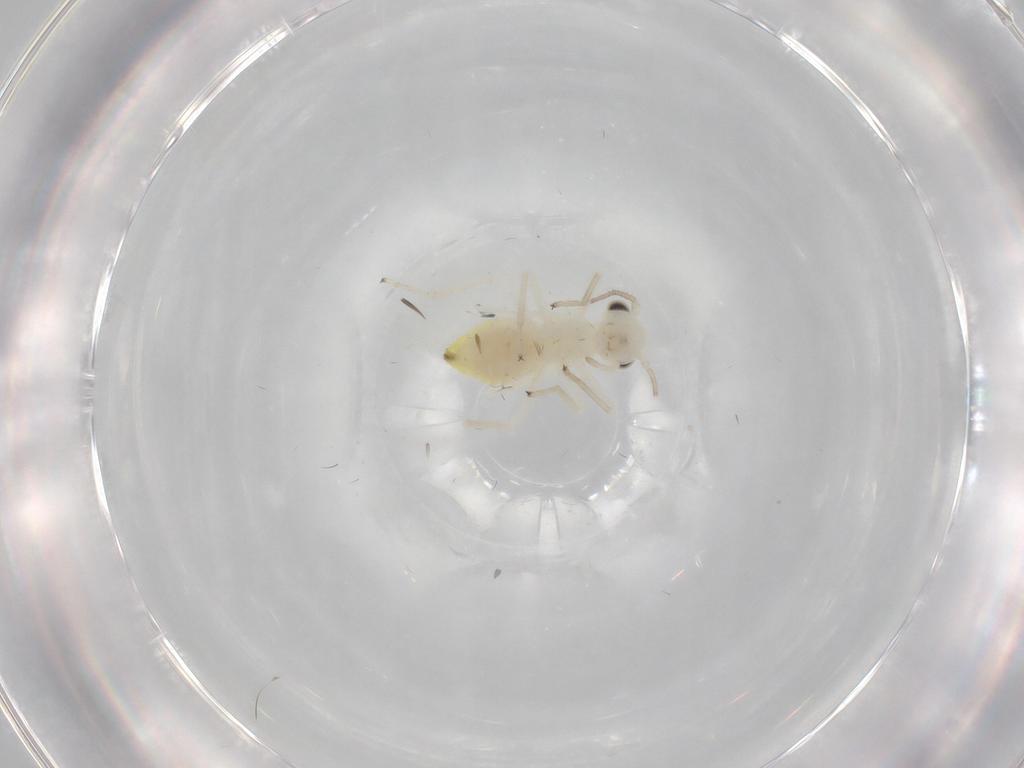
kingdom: Animalia
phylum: Arthropoda
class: Insecta
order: Psocodea
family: Caeciliusidae
